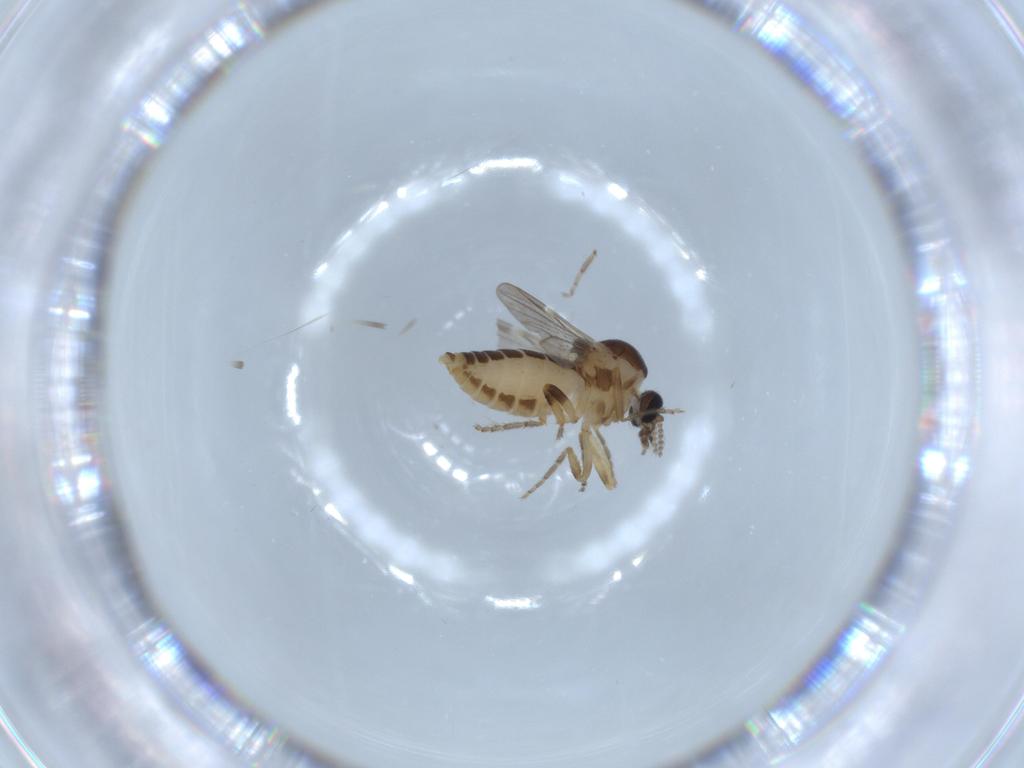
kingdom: Animalia
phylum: Arthropoda
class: Insecta
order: Diptera
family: Ceratopogonidae
